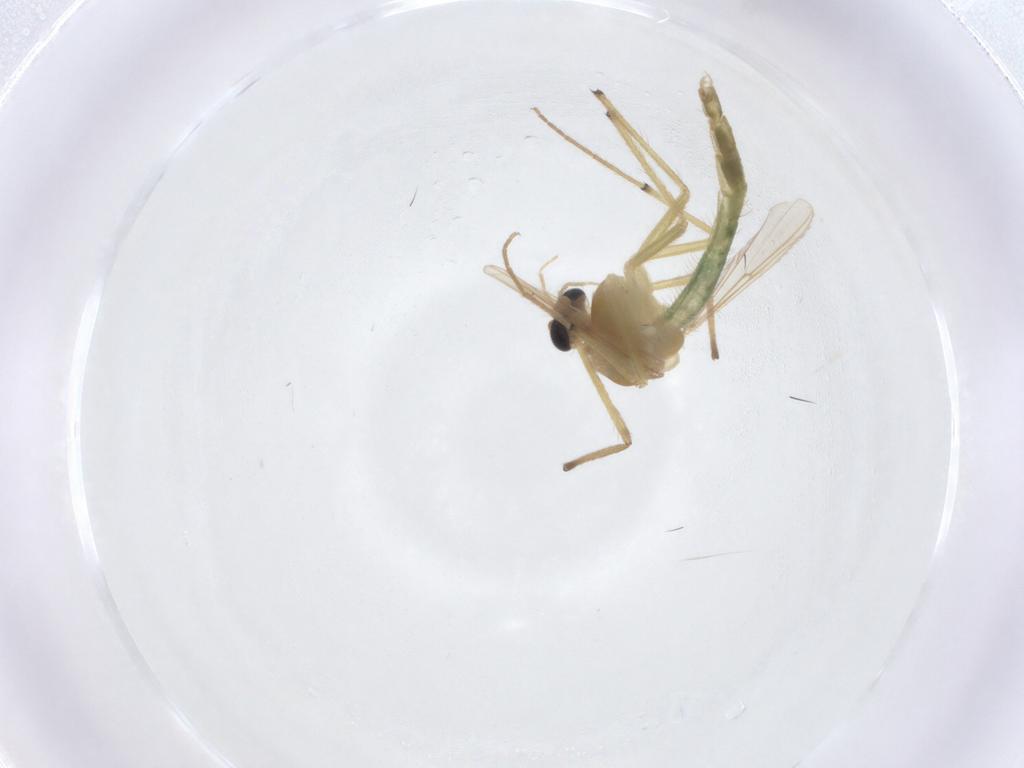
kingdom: Animalia
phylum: Arthropoda
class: Insecta
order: Diptera
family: Chironomidae
